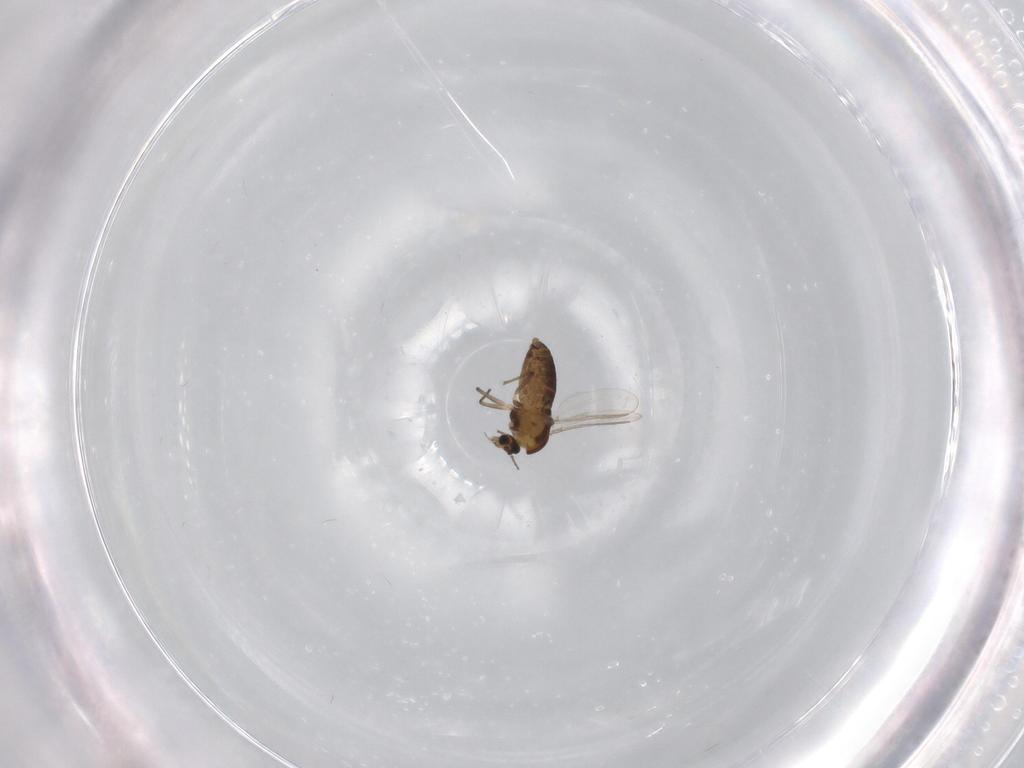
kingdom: Animalia
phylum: Arthropoda
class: Insecta
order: Diptera
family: Chironomidae
